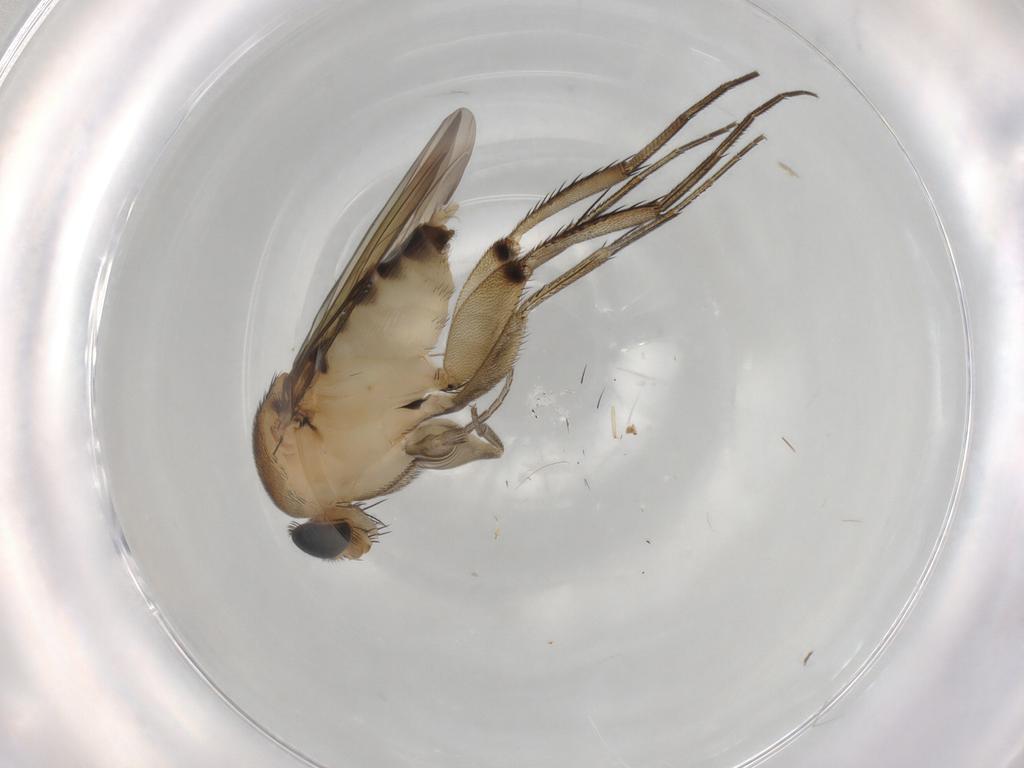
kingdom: Animalia
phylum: Arthropoda
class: Insecta
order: Diptera
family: Phoridae
